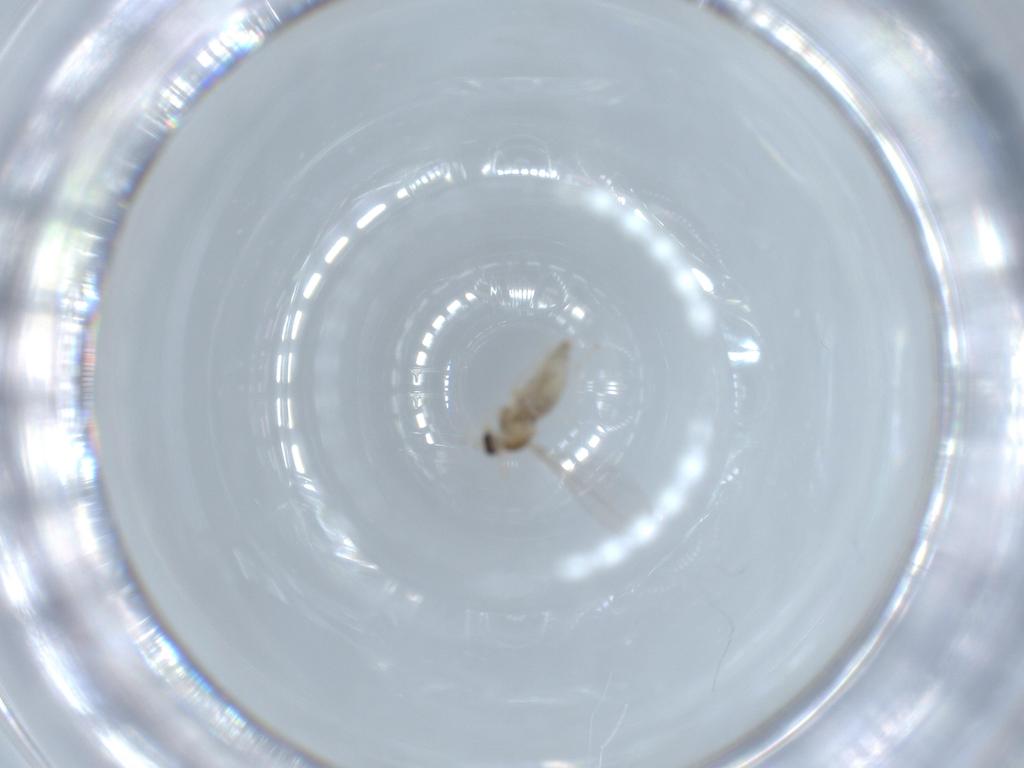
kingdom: Animalia
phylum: Arthropoda
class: Insecta
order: Diptera
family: Cecidomyiidae
